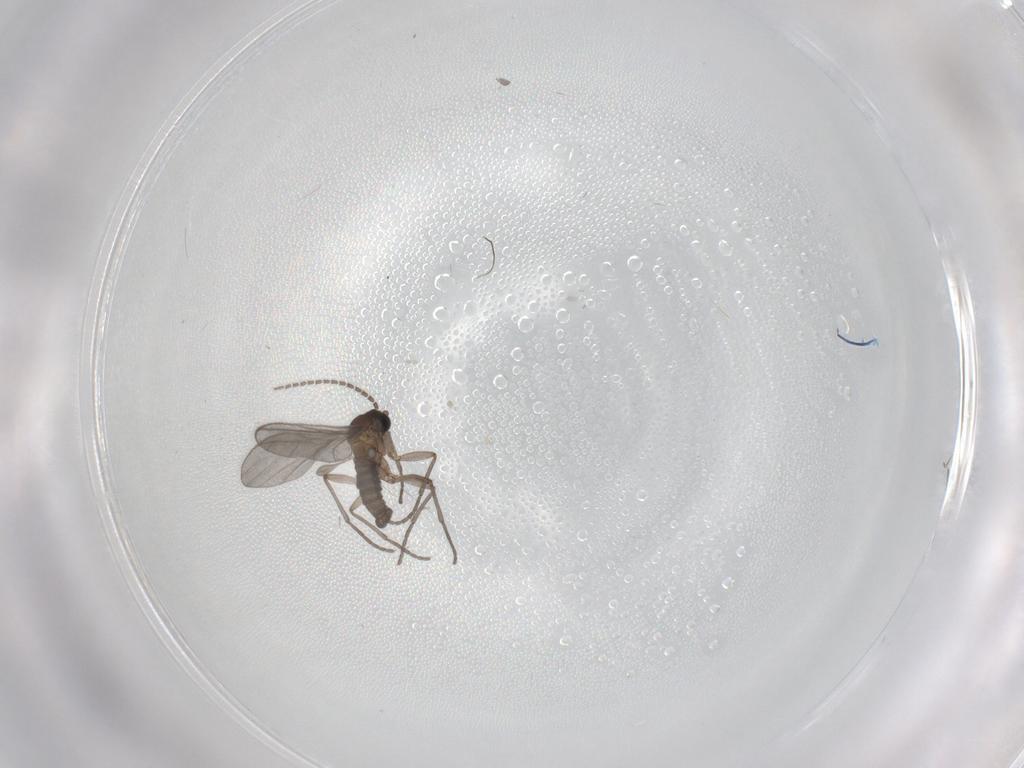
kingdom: Animalia
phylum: Arthropoda
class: Insecta
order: Diptera
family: Sciaridae
